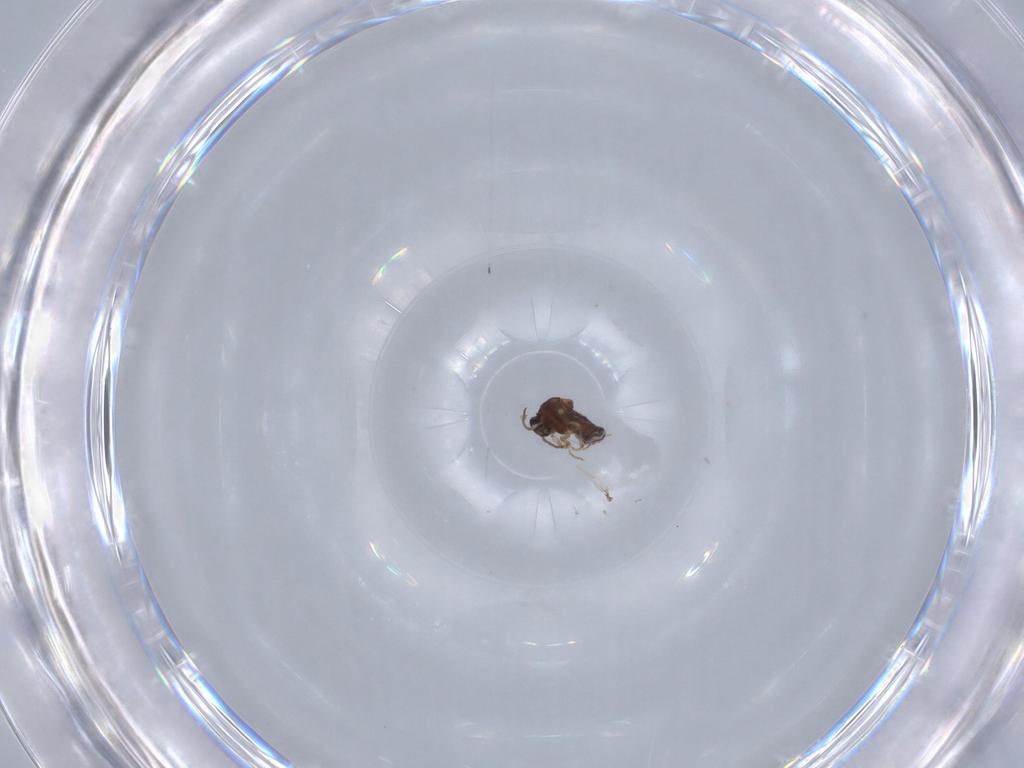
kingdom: Animalia
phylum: Arthropoda
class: Insecta
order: Diptera
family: Ceratopogonidae
